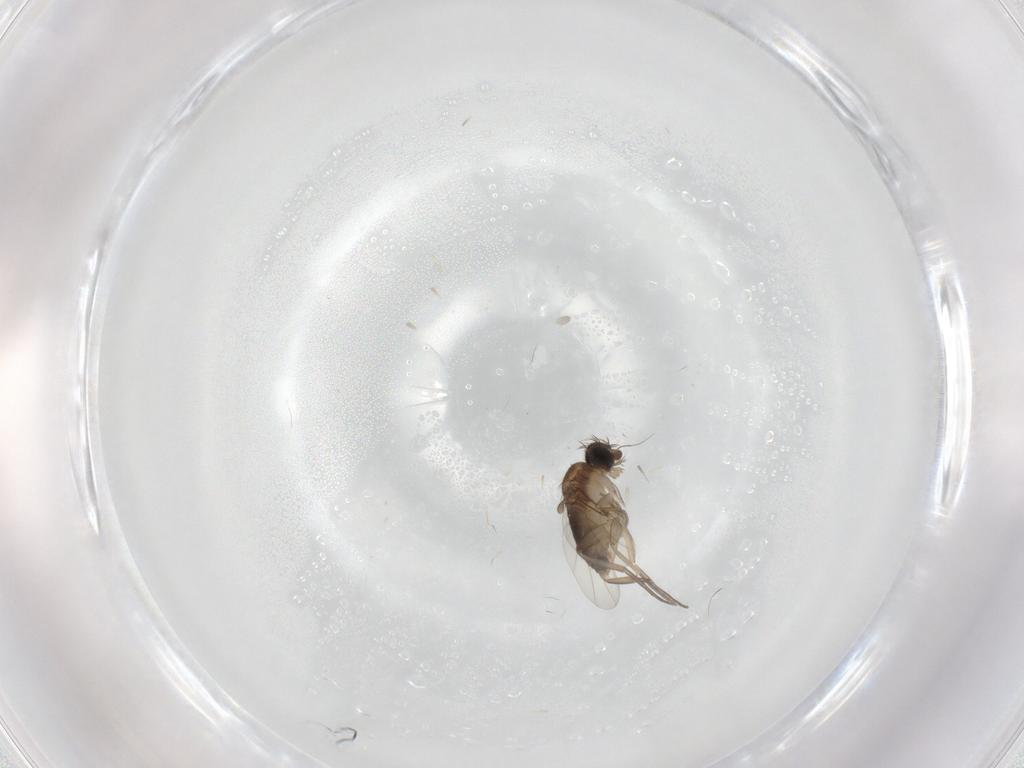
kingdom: Animalia
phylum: Arthropoda
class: Insecta
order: Diptera
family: Phoridae
